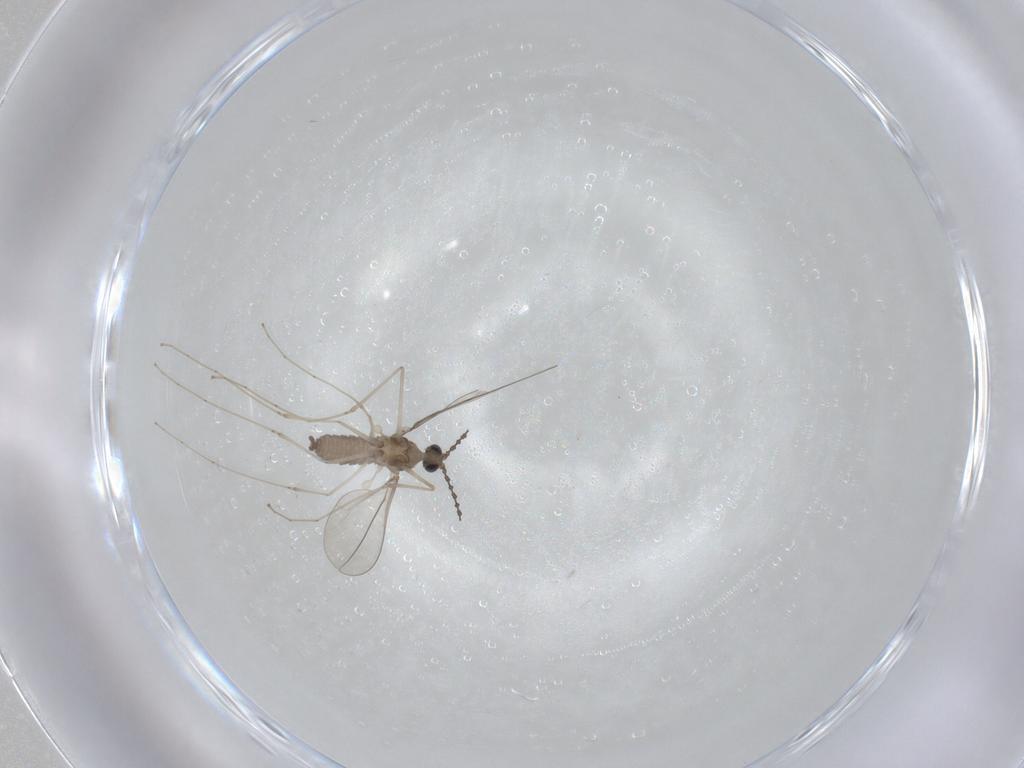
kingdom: Animalia
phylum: Arthropoda
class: Insecta
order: Diptera
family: Cecidomyiidae
